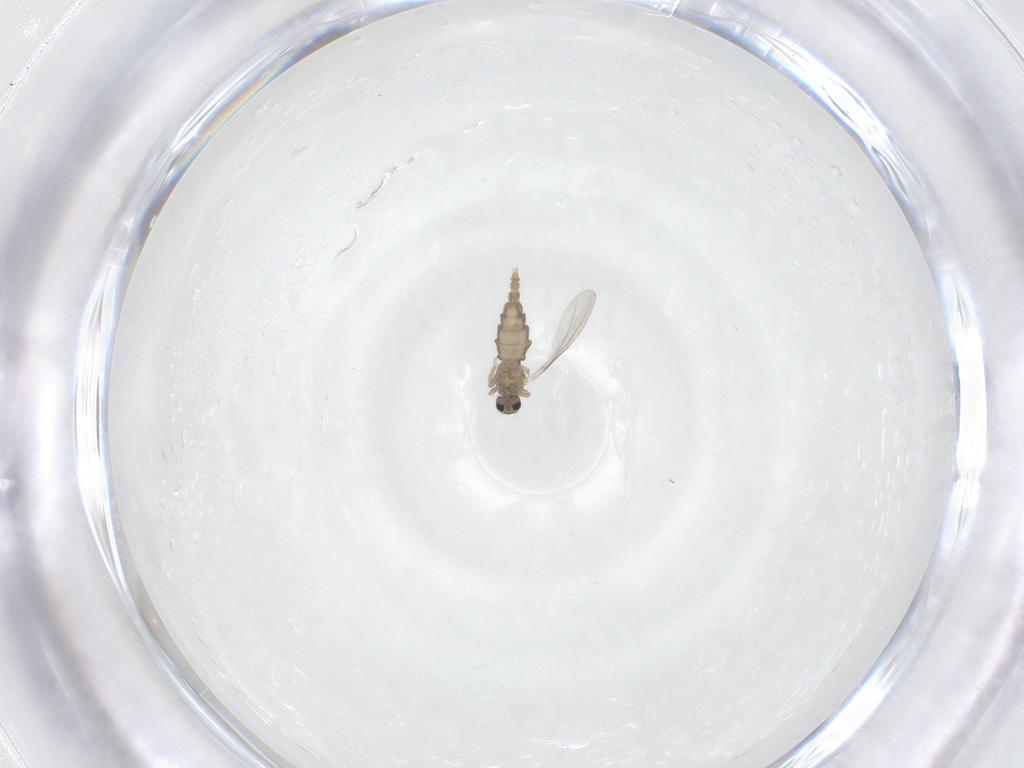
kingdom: Animalia
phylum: Arthropoda
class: Insecta
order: Diptera
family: Cecidomyiidae
